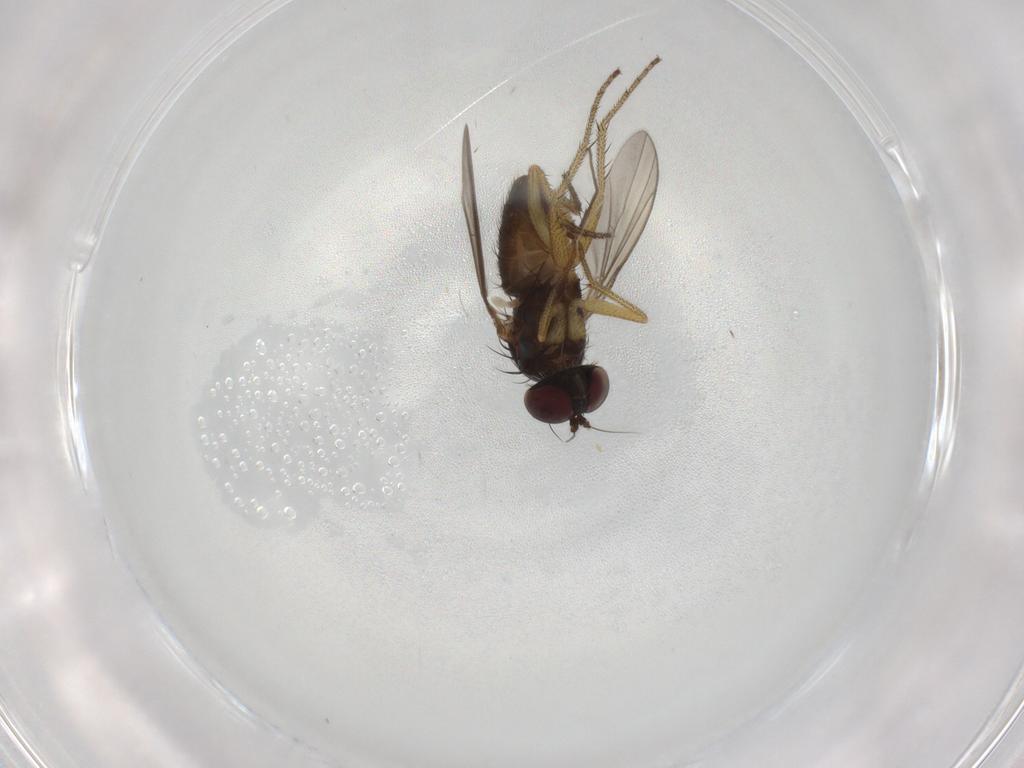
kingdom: Animalia
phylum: Arthropoda
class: Insecta
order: Diptera
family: Dolichopodidae
